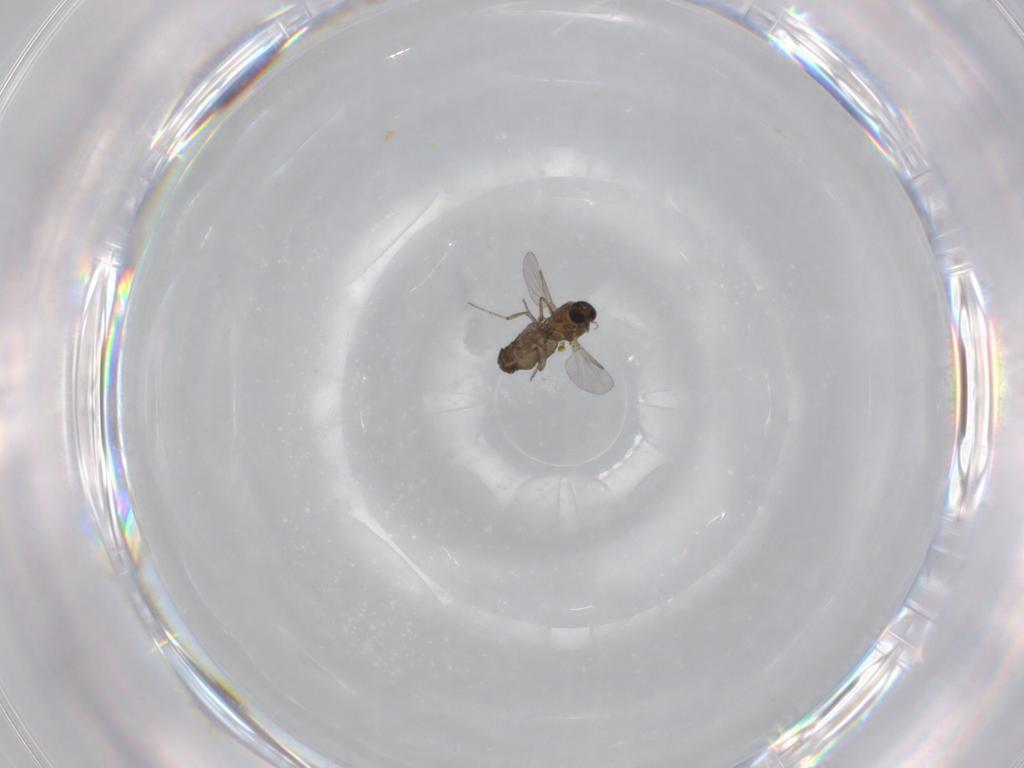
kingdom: Animalia
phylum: Arthropoda
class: Insecta
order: Diptera
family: Ceratopogonidae
